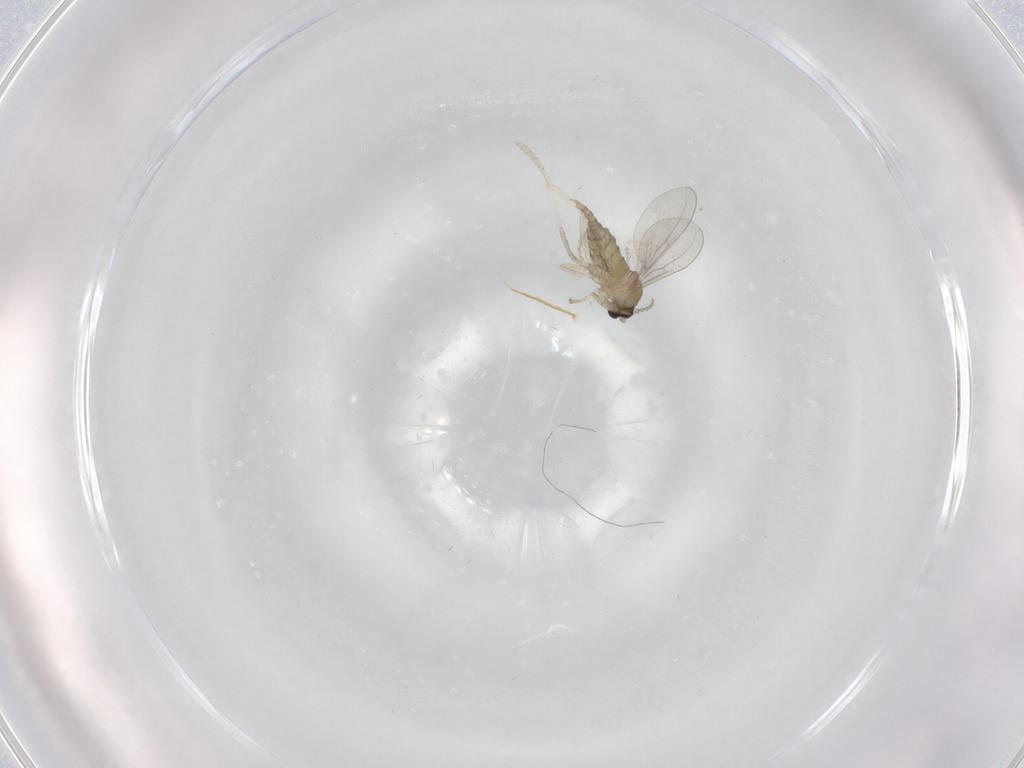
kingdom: Animalia
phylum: Arthropoda
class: Insecta
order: Diptera
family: Cecidomyiidae
